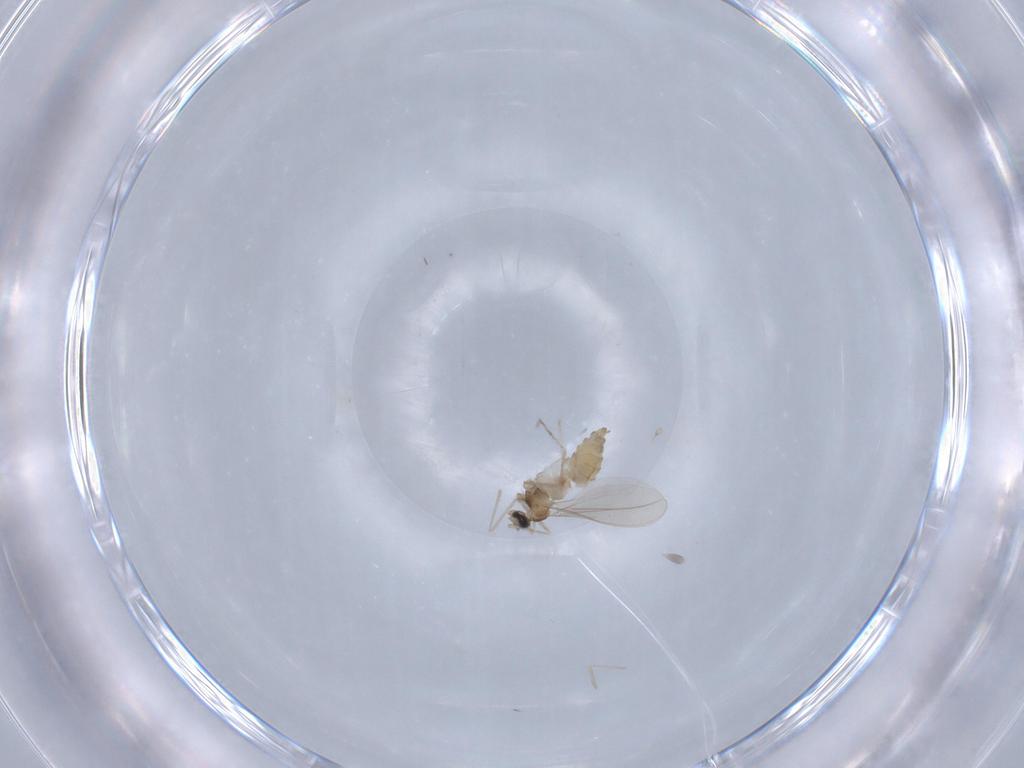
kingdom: Animalia
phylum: Arthropoda
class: Insecta
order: Diptera
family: Cecidomyiidae
